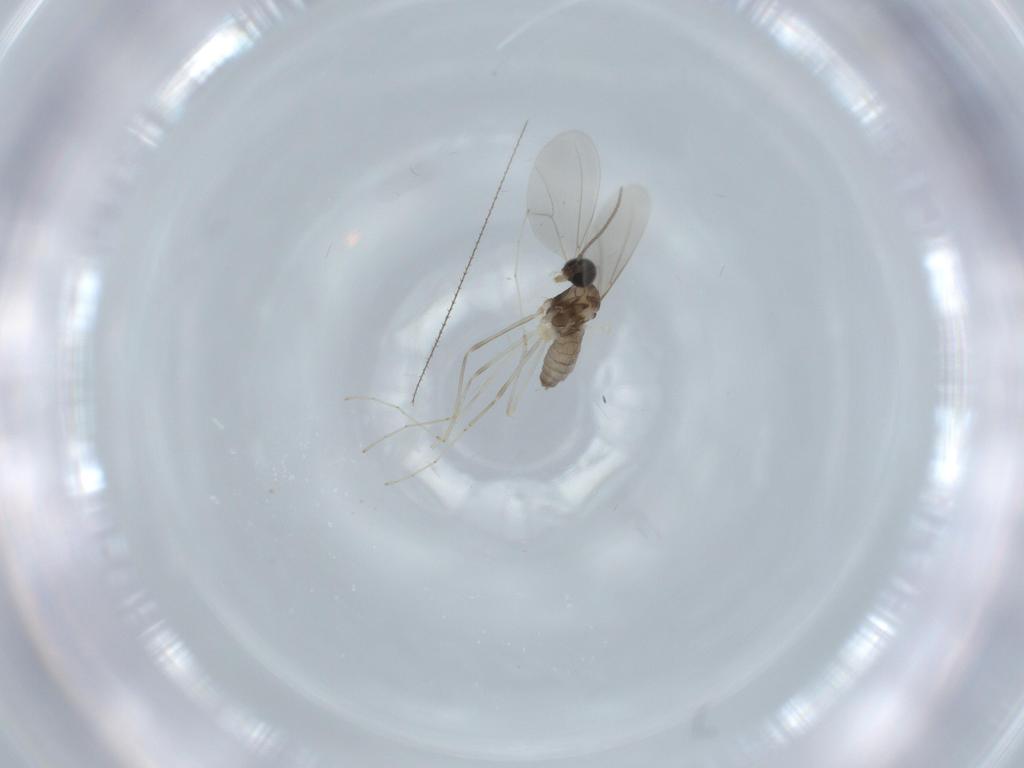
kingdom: Animalia
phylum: Arthropoda
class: Insecta
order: Diptera
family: Cecidomyiidae
